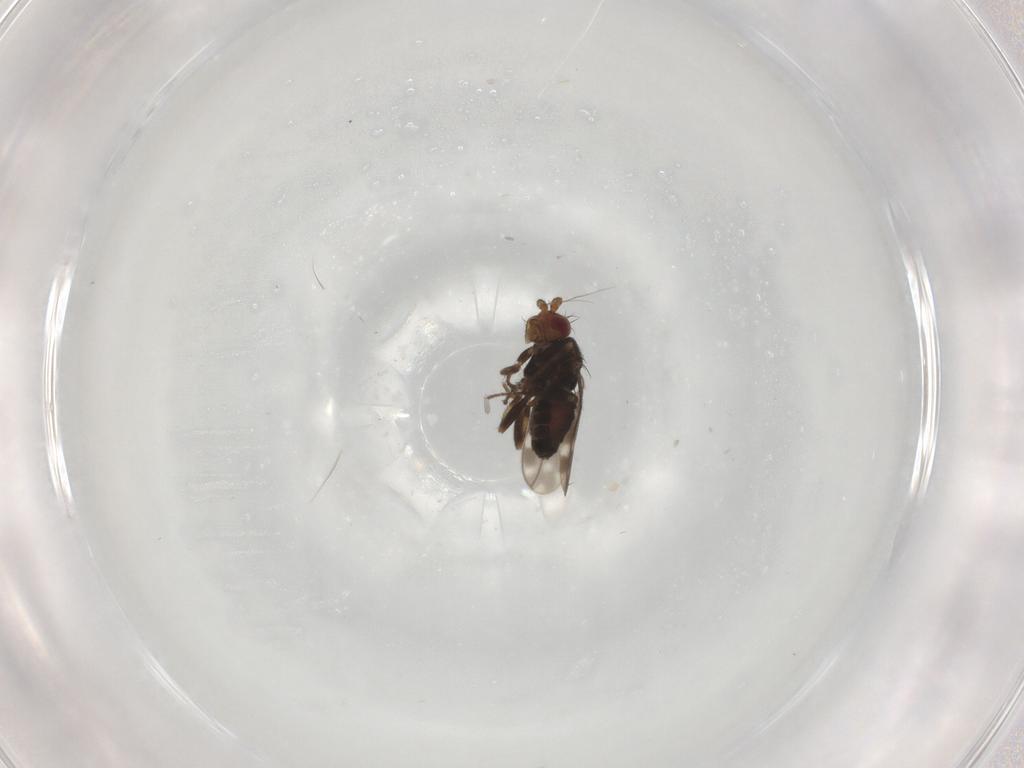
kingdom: Animalia
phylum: Arthropoda
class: Insecta
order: Diptera
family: Sphaeroceridae
